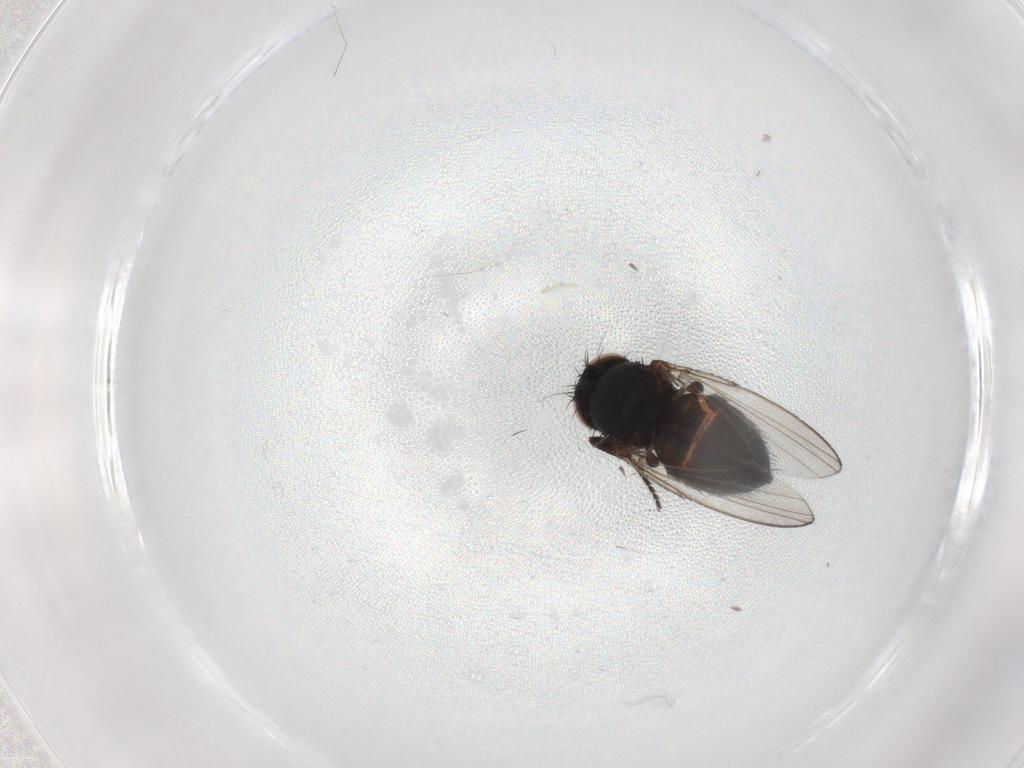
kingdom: Animalia
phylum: Arthropoda
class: Insecta
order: Diptera
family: Milichiidae
